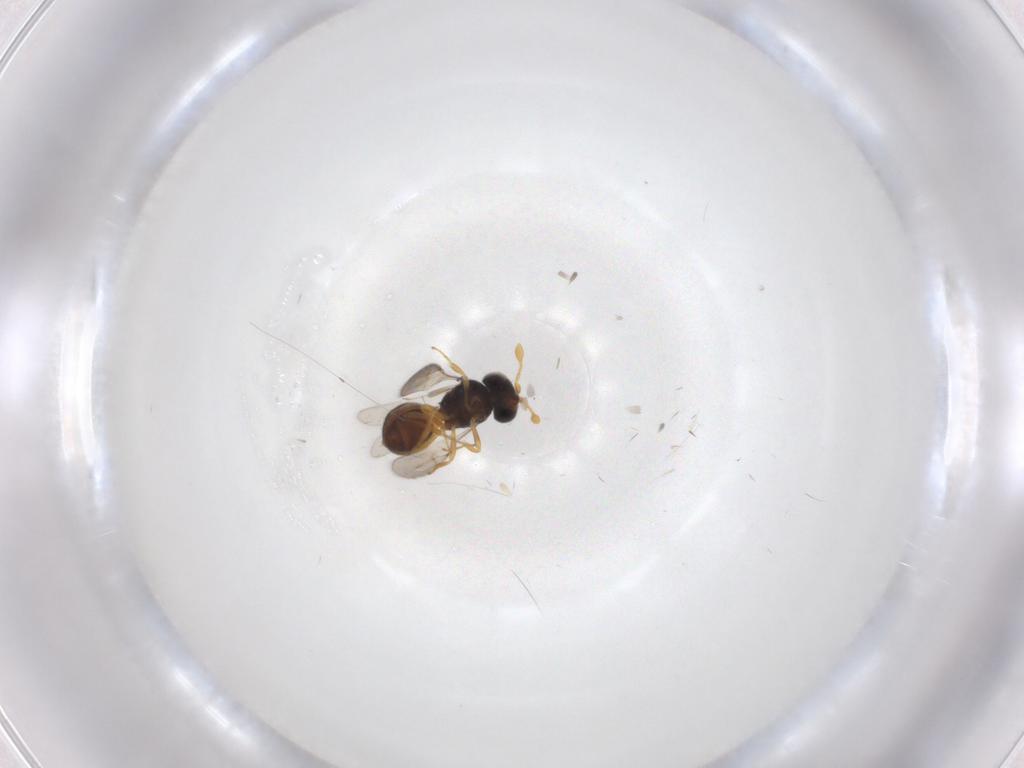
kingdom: Animalia
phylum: Arthropoda
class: Insecta
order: Hymenoptera
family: Scelionidae
